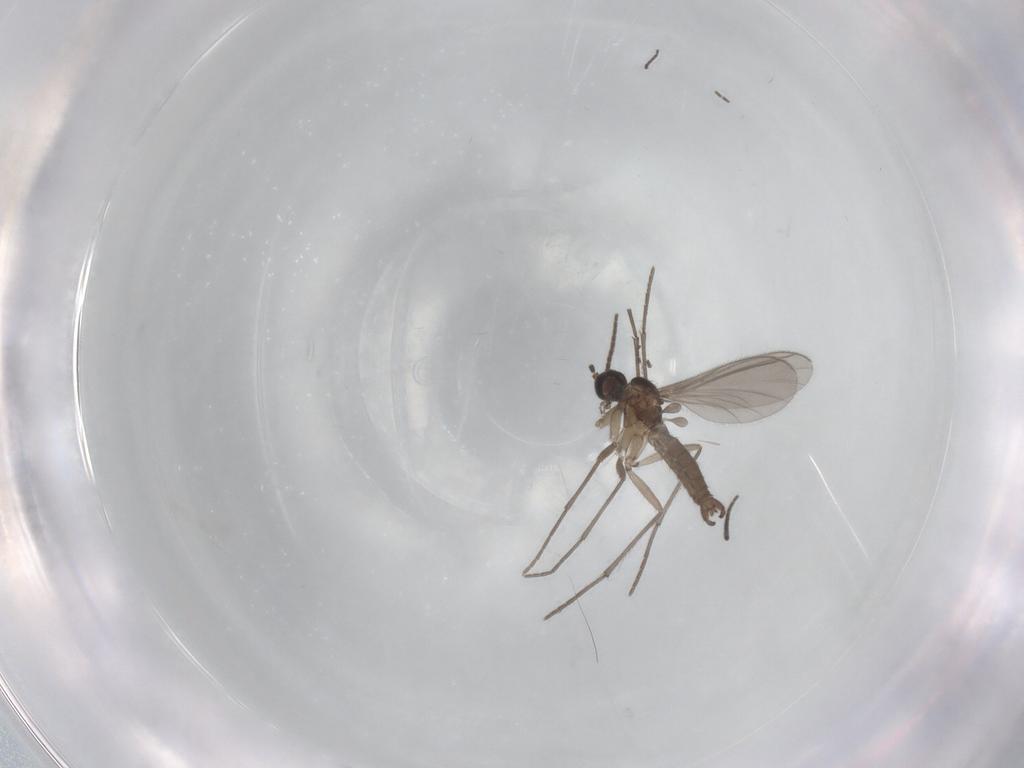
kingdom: Animalia
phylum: Arthropoda
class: Insecta
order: Diptera
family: Sciaridae
